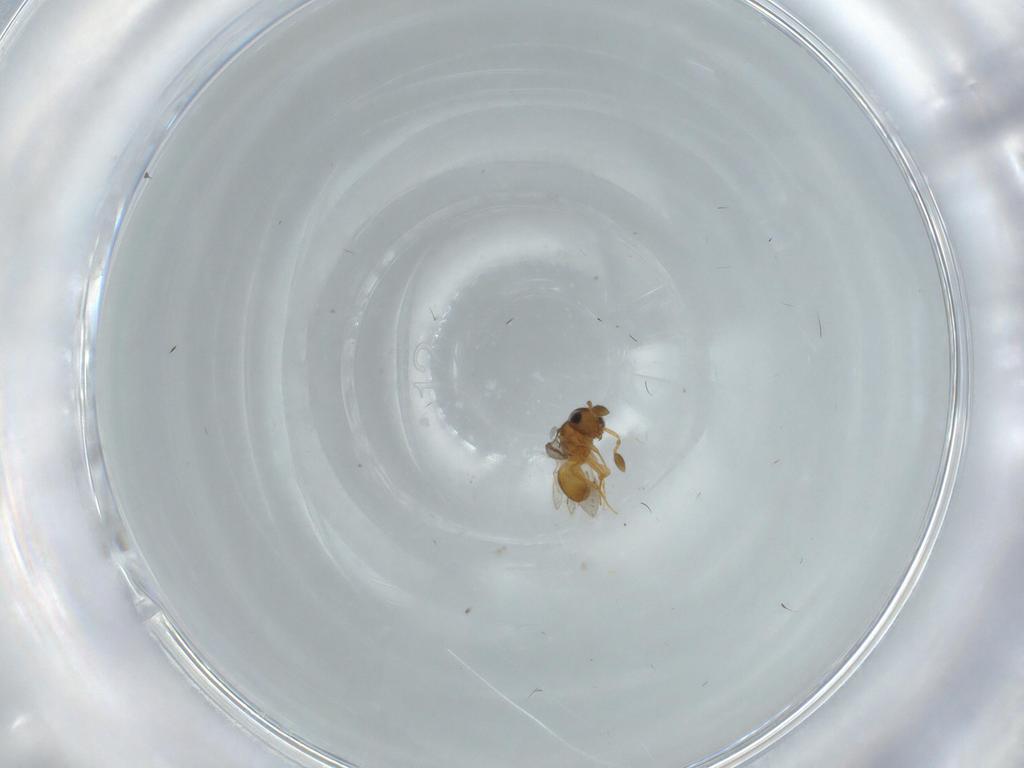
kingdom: Animalia
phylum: Arthropoda
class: Insecta
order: Hymenoptera
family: Scelionidae
